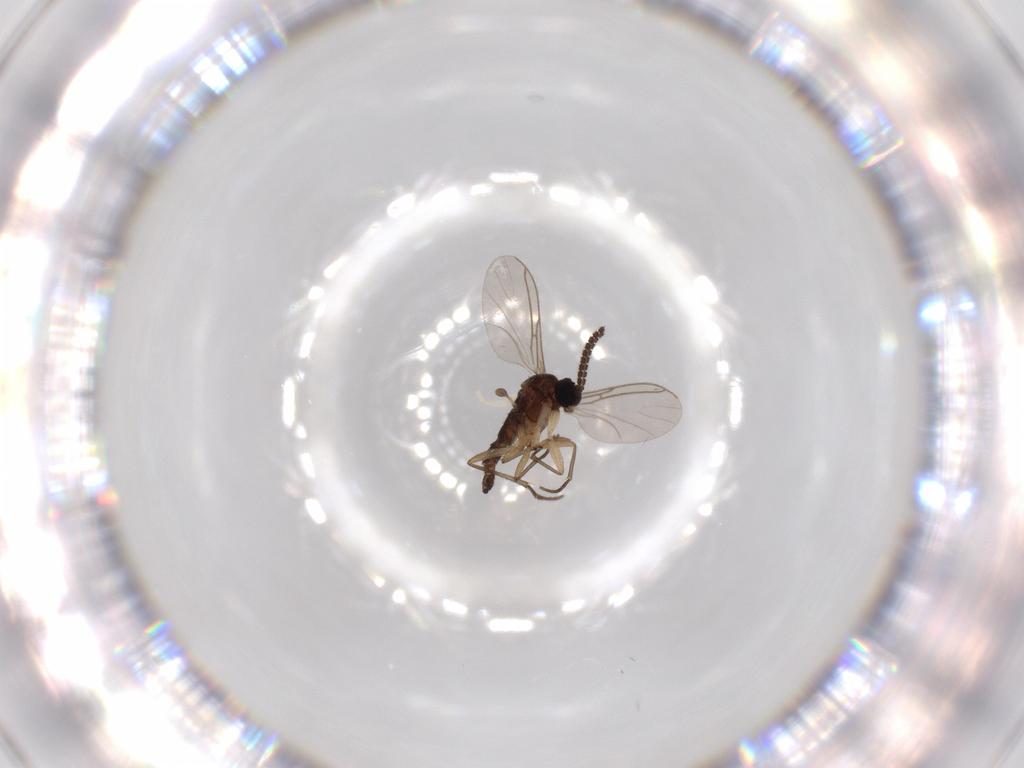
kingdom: Animalia
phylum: Arthropoda
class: Insecta
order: Diptera
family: Sciaridae
